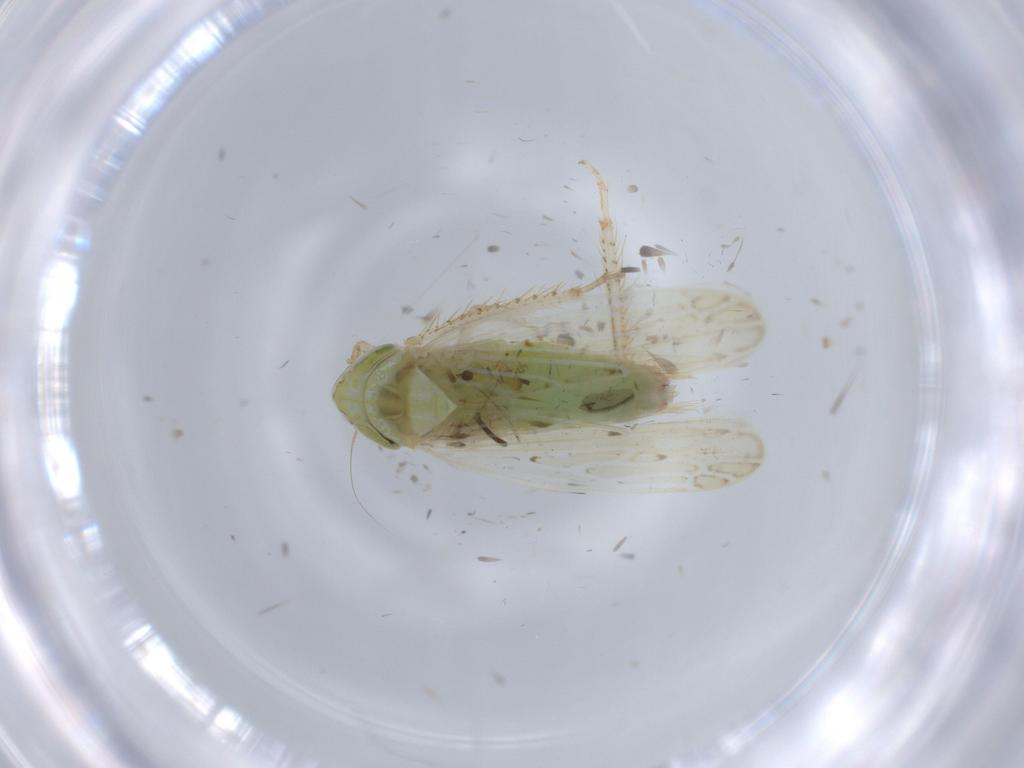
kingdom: Animalia
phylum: Arthropoda
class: Insecta
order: Hemiptera
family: Cicadellidae
